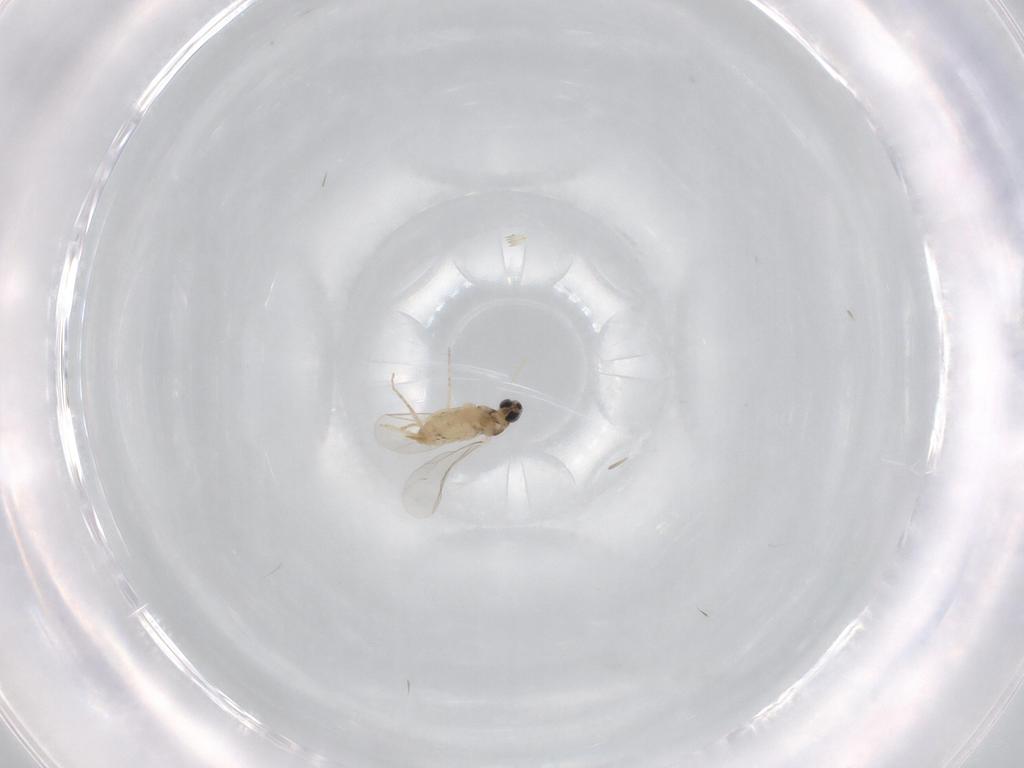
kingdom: Animalia
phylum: Arthropoda
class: Insecta
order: Diptera
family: Cecidomyiidae
